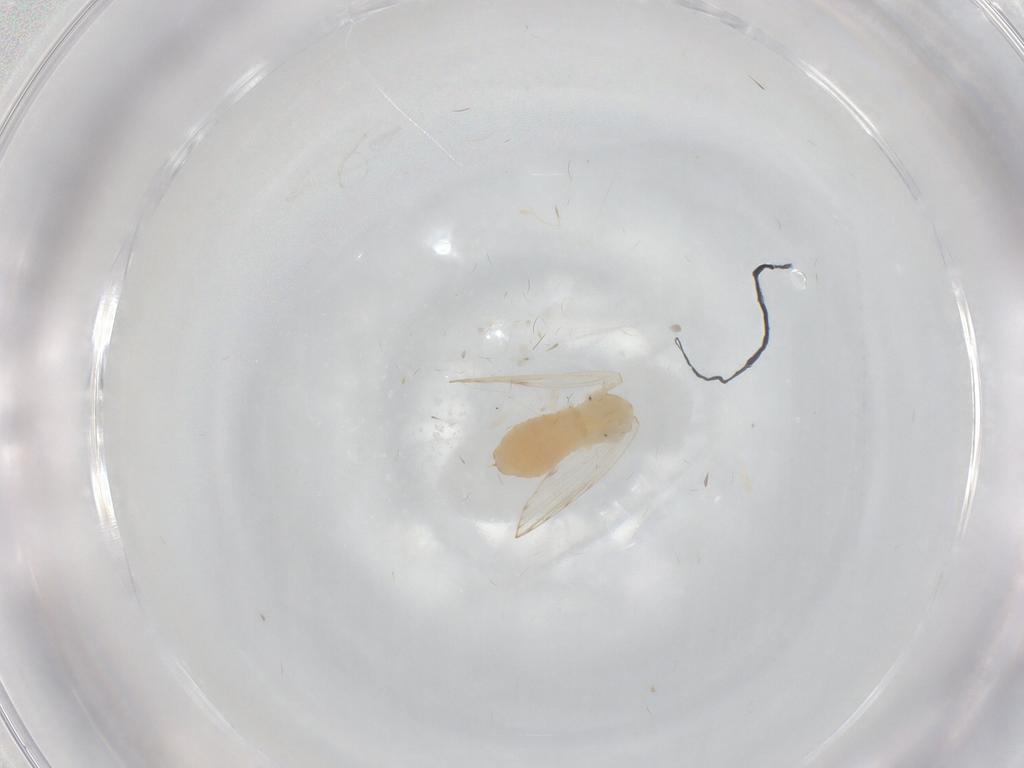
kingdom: Animalia
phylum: Arthropoda
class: Insecta
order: Diptera
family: Psychodidae
